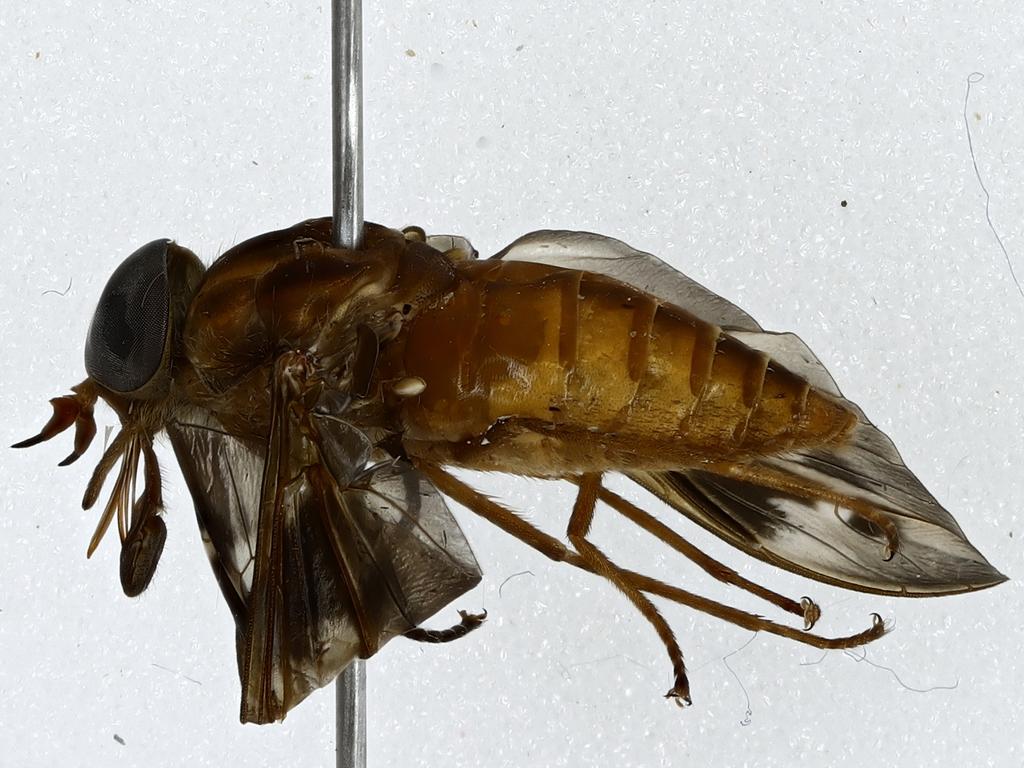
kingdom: Animalia
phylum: Arthropoda
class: Insecta
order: Diptera
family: Tabanidae
